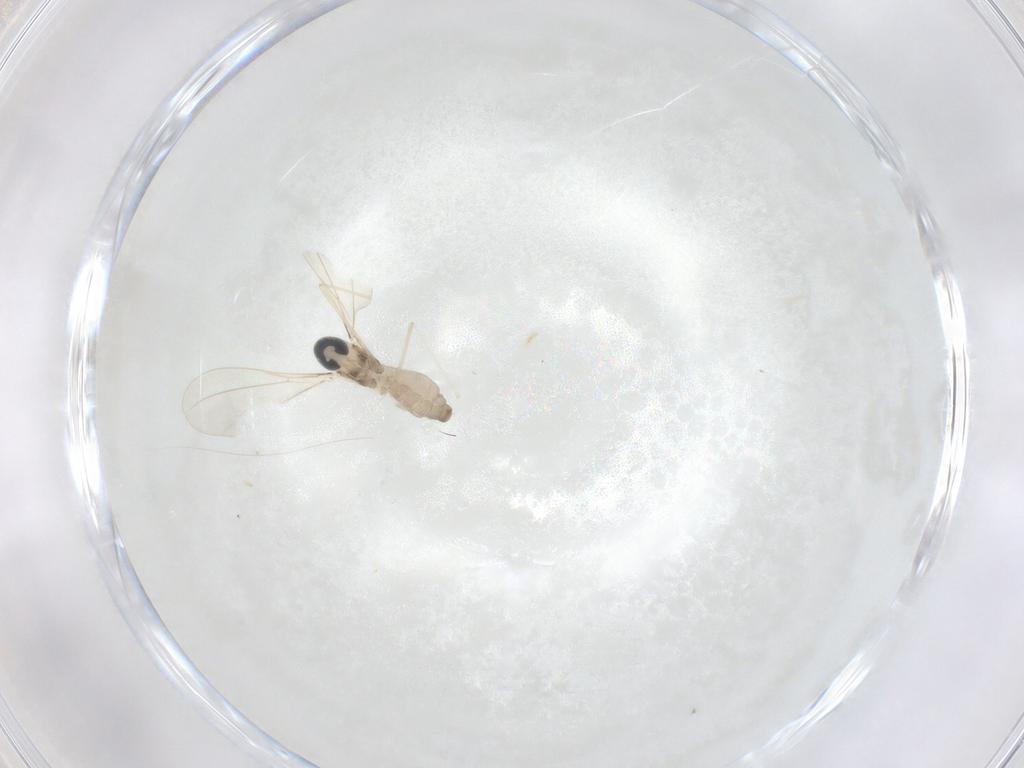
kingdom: Animalia
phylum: Arthropoda
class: Insecta
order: Diptera
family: Cecidomyiidae
